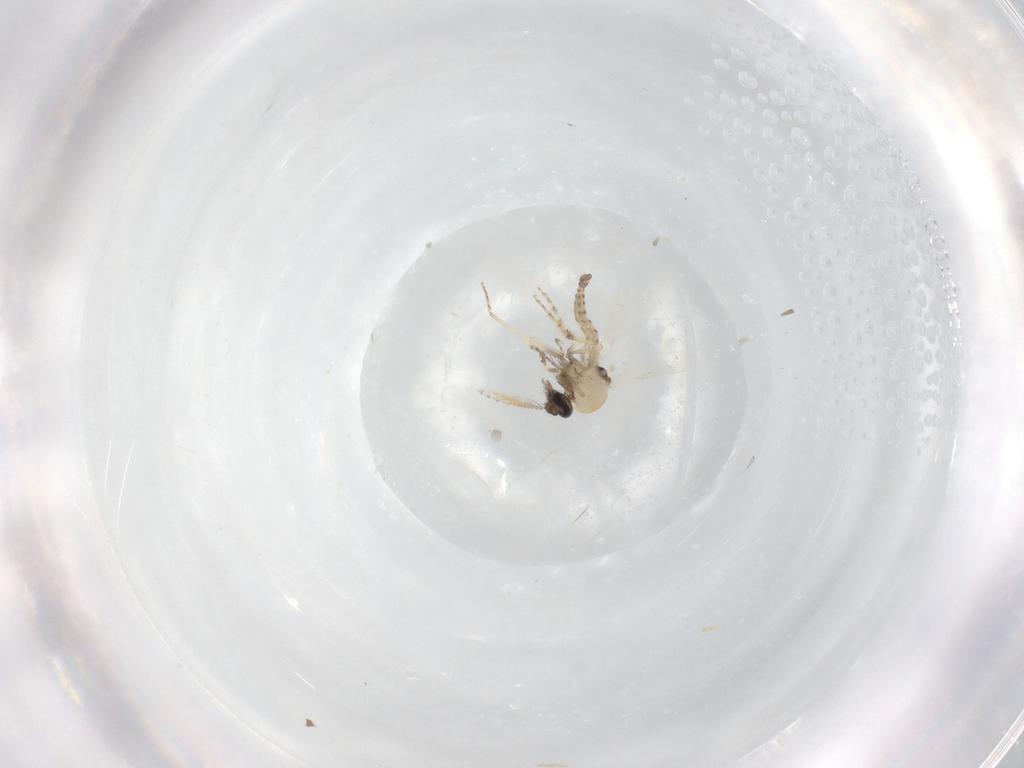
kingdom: Animalia
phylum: Arthropoda
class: Insecta
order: Diptera
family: Ceratopogonidae
